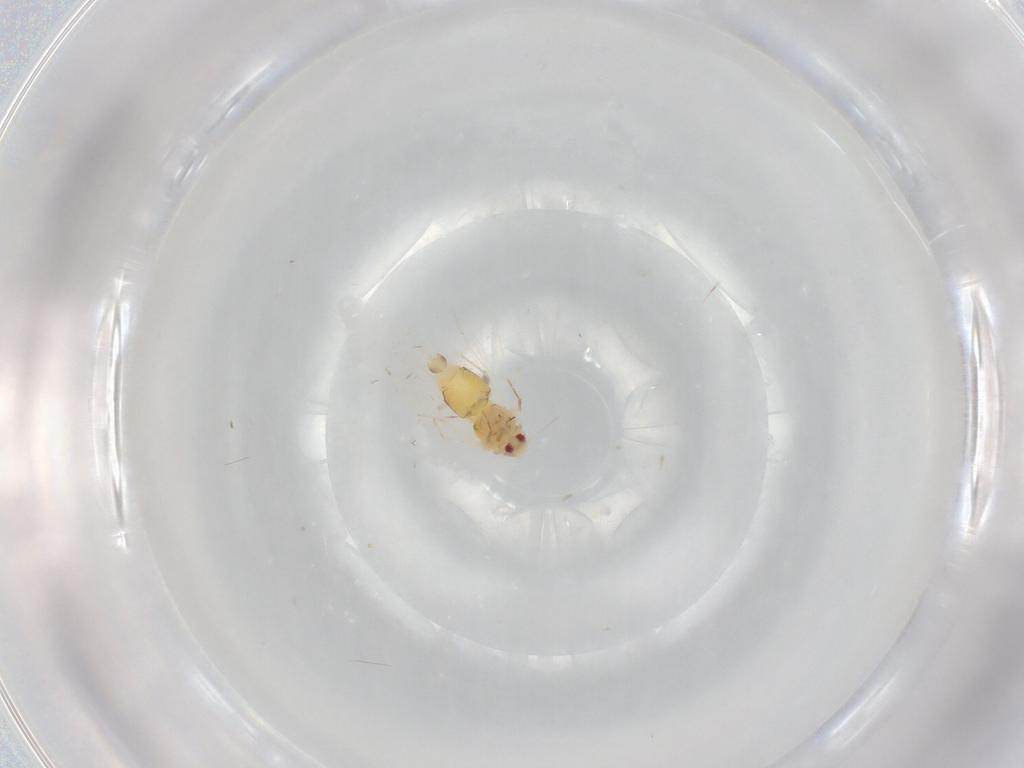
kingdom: Animalia
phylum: Arthropoda
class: Insecta
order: Hemiptera
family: Aleyrodidae
